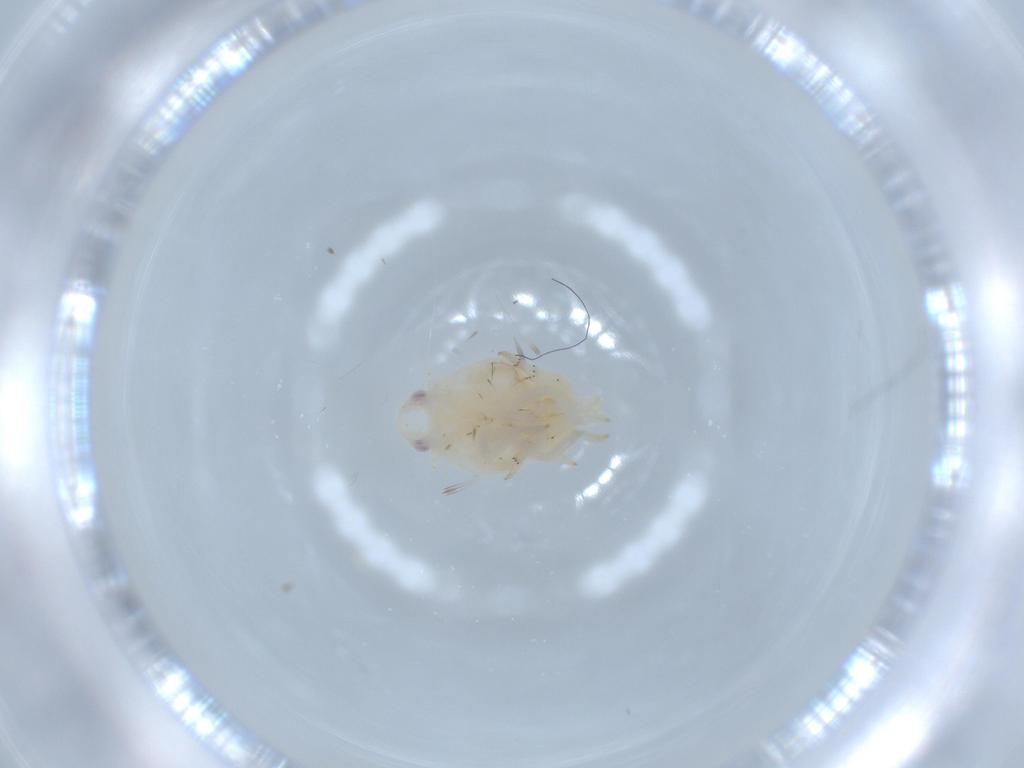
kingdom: Animalia
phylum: Arthropoda
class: Insecta
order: Hemiptera
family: Flatidae
